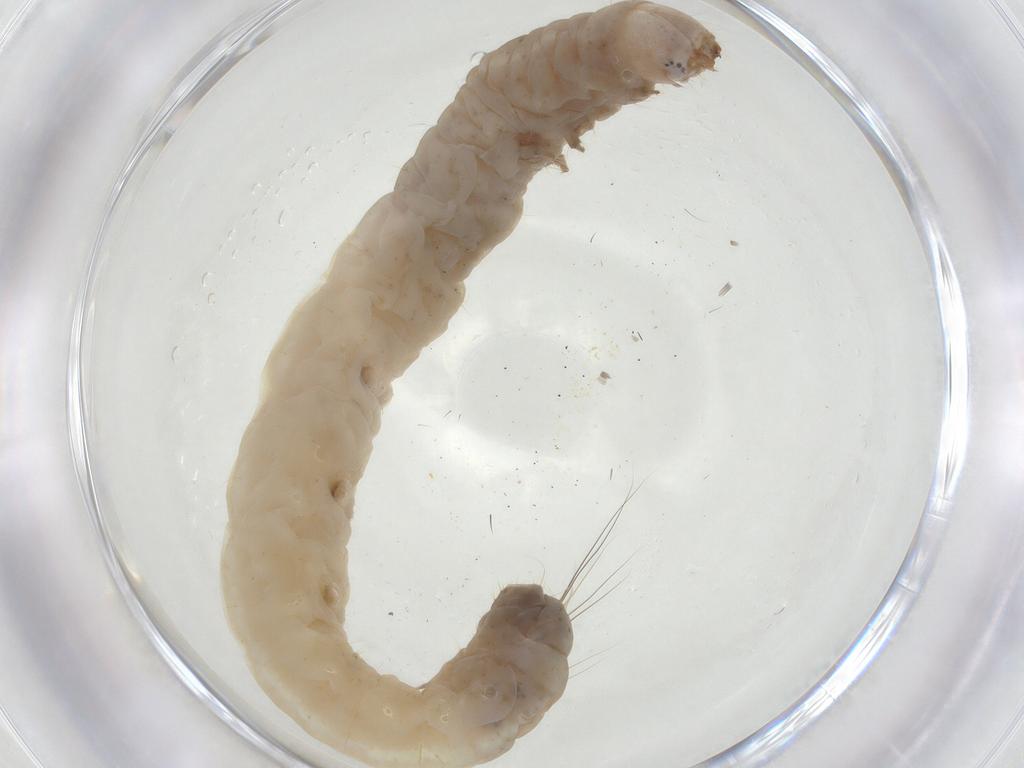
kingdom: Animalia
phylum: Arthropoda
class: Insecta
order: Lepidoptera
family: Gelechiidae
